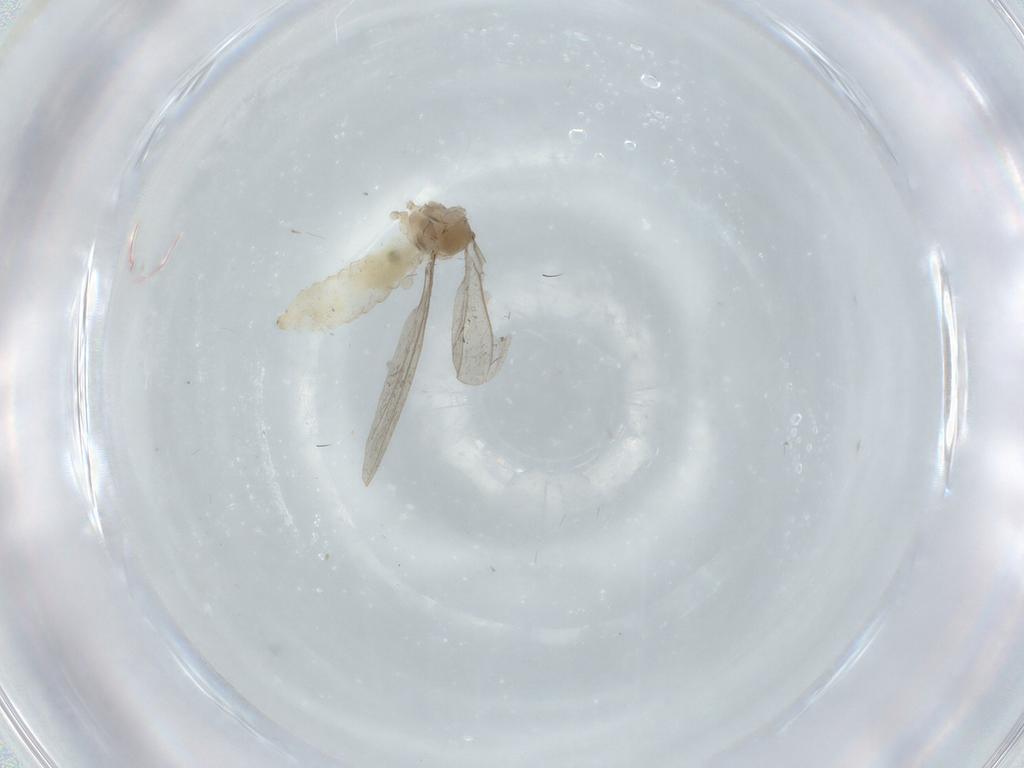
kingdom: Animalia
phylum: Arthropoda
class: Insecta
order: Diptera
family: Cecidomyiidae
